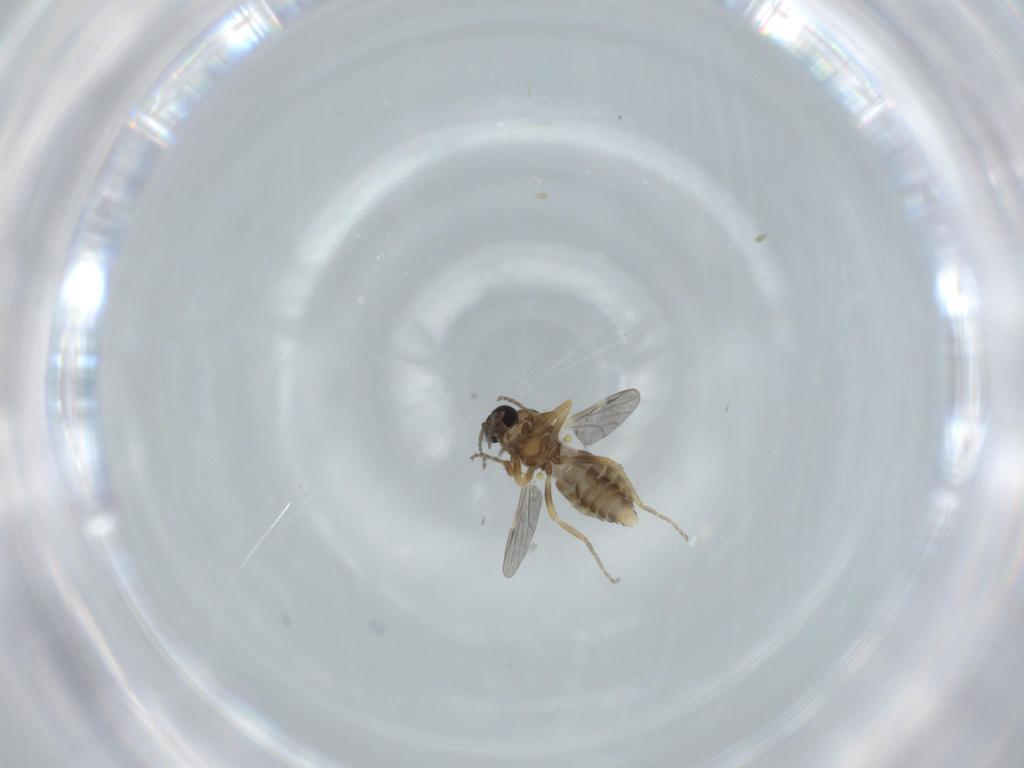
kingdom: Animalia
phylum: Arthropoda
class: Insecta
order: Diptera
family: Ceratopogonidae
